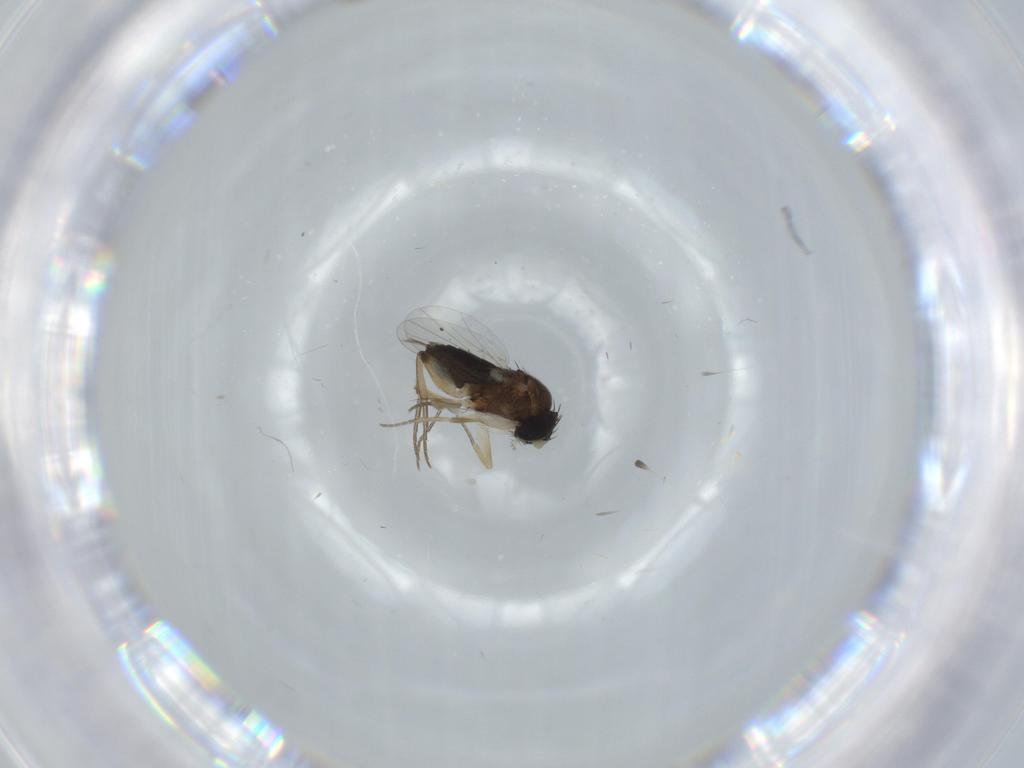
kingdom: Animalia
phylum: Arthropoda
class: Insecta
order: Diptera
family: Phoridae
